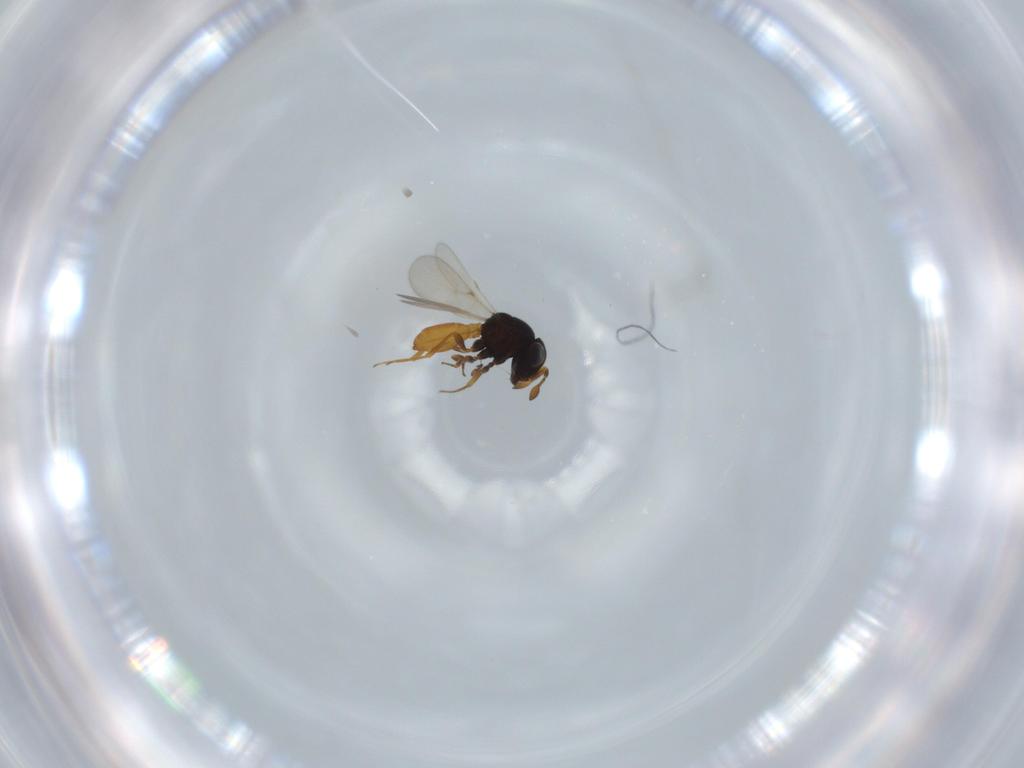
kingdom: Animalia
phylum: Arthropoda
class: Insecta
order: Hymenoptera
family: Scelionidae
